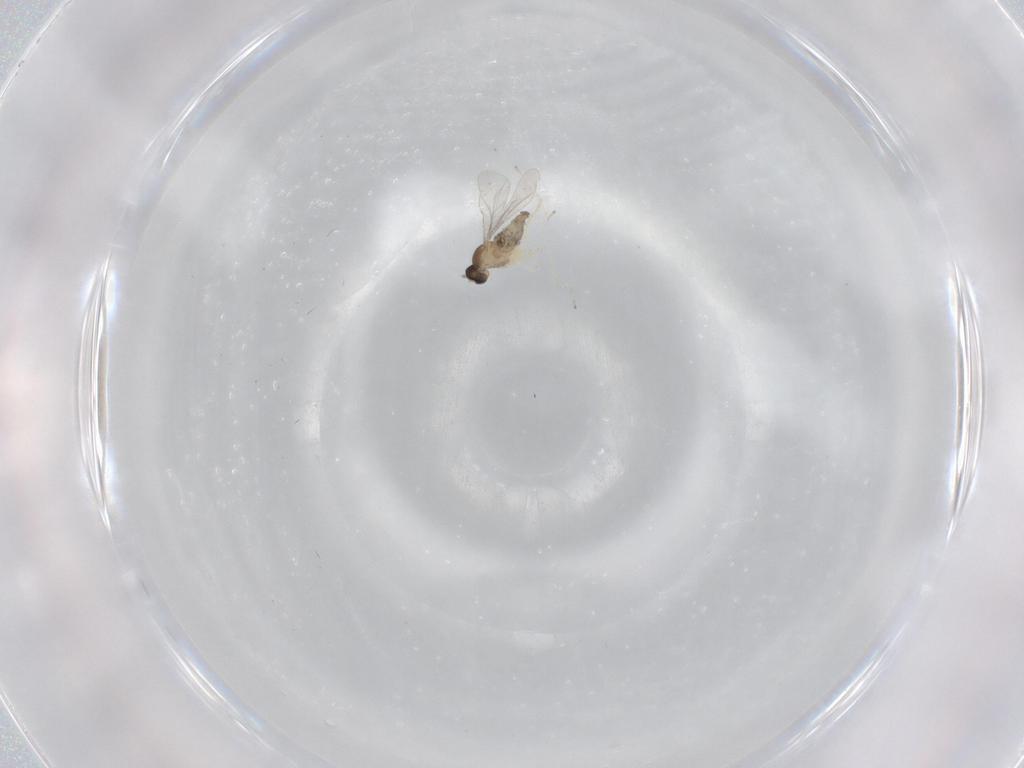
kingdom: Animalia
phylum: Arthropoda
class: Insecta
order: Diptera
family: Cecidomyiidae
